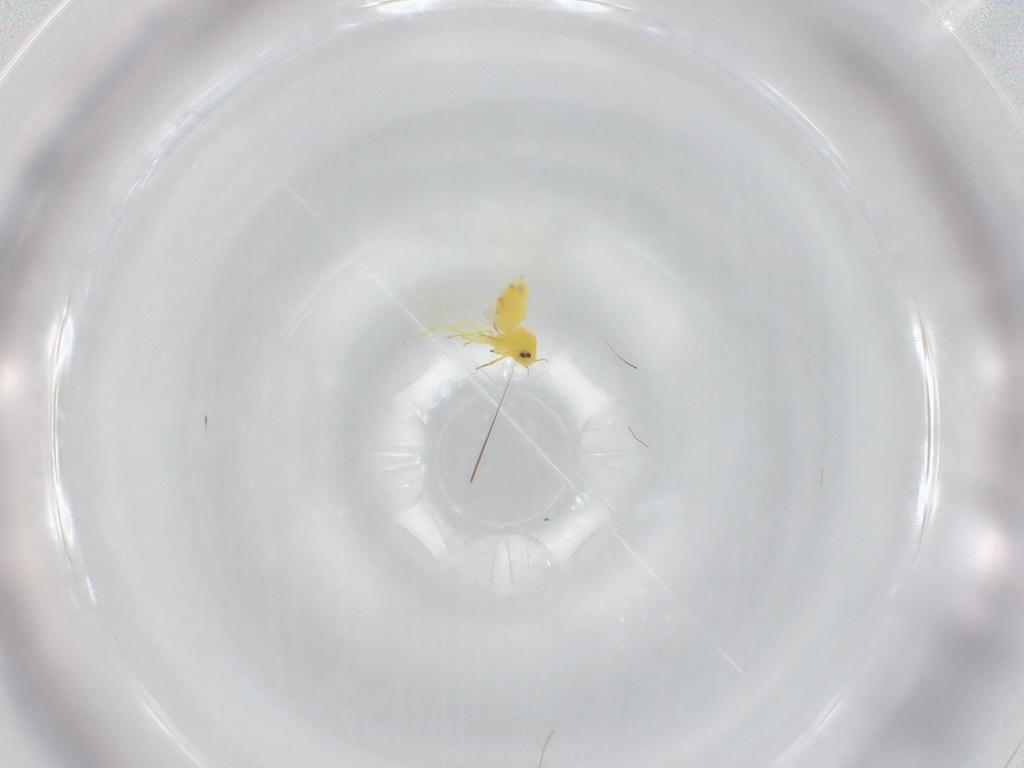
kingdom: Animalia
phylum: Arthropoda
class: Insecta
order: Hemiptera
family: Aleyrodidae
